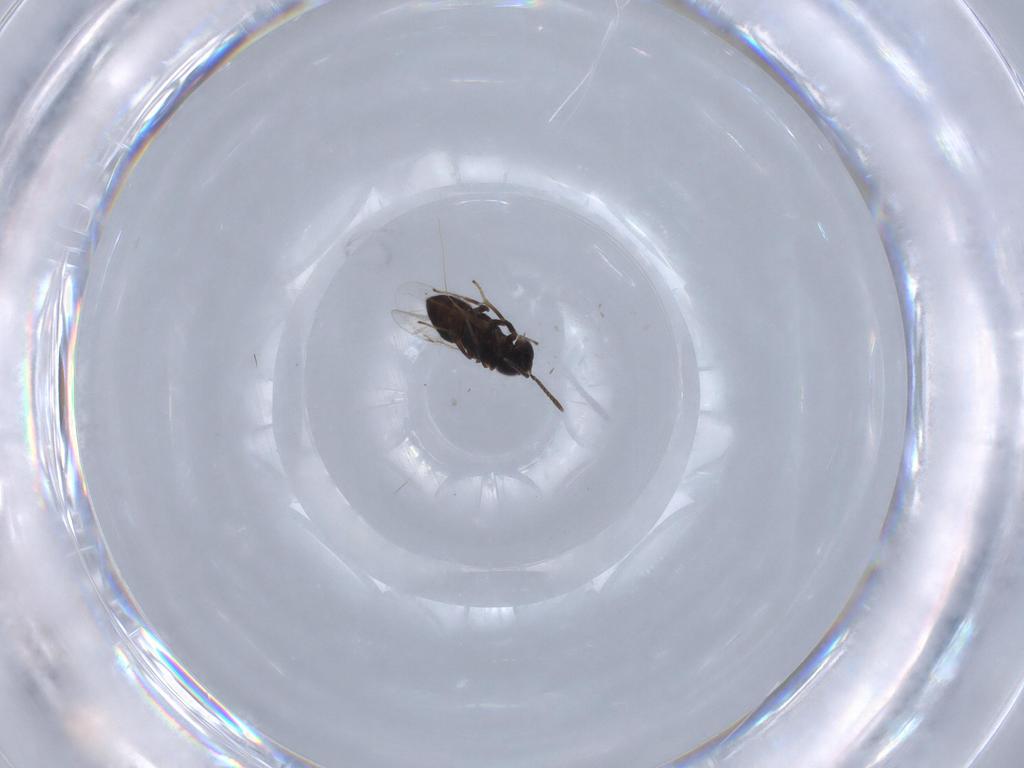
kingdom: Animalia
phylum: Arthropoda
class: Insecta
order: Hymenoptera
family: Encyrtidae
